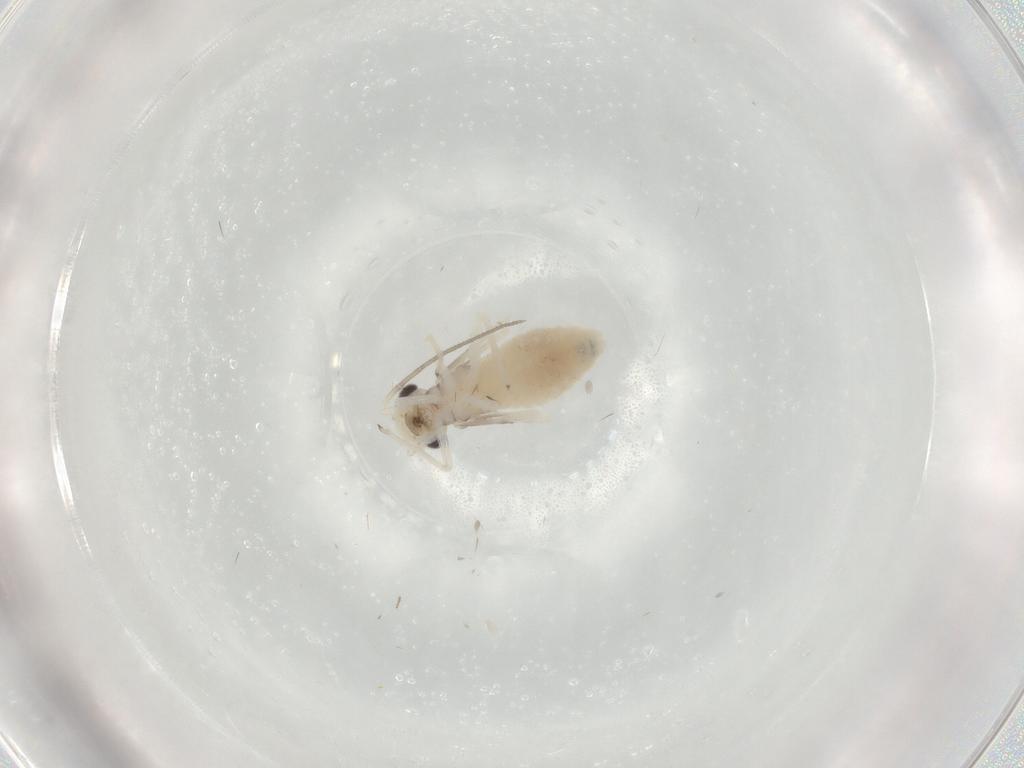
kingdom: Animalia
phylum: Arthropoda
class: Insecta
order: Psocodea
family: Psocidae
